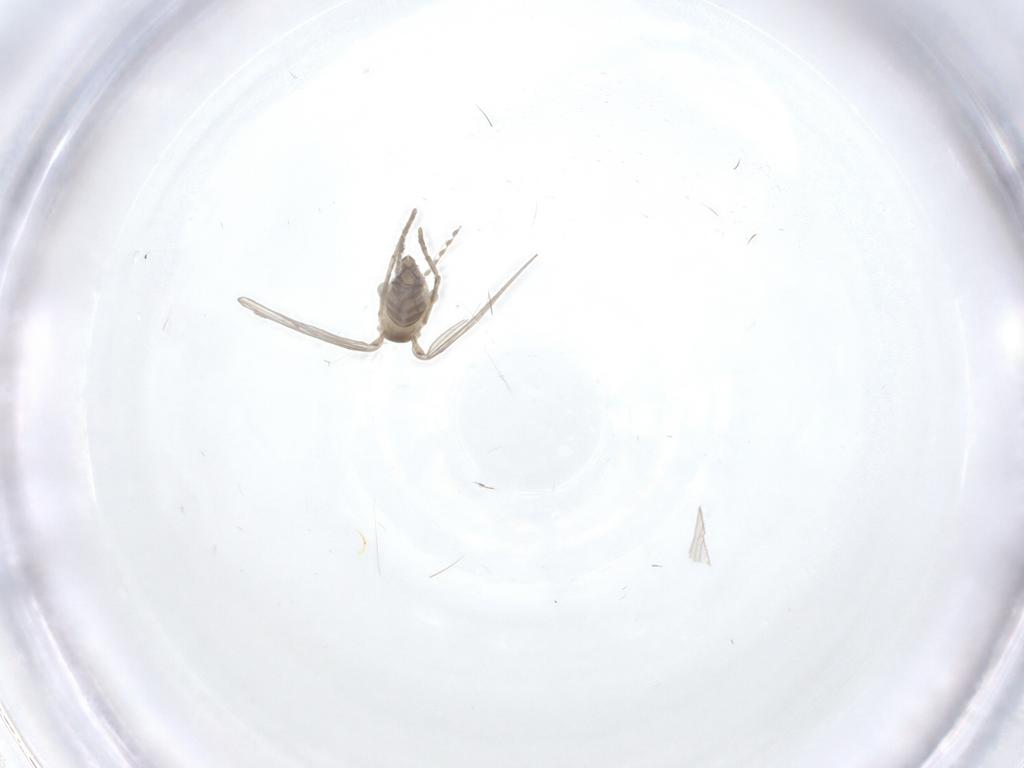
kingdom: Animalia
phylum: Arthropoda
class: Insecta
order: Diptera
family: Sciaridae
